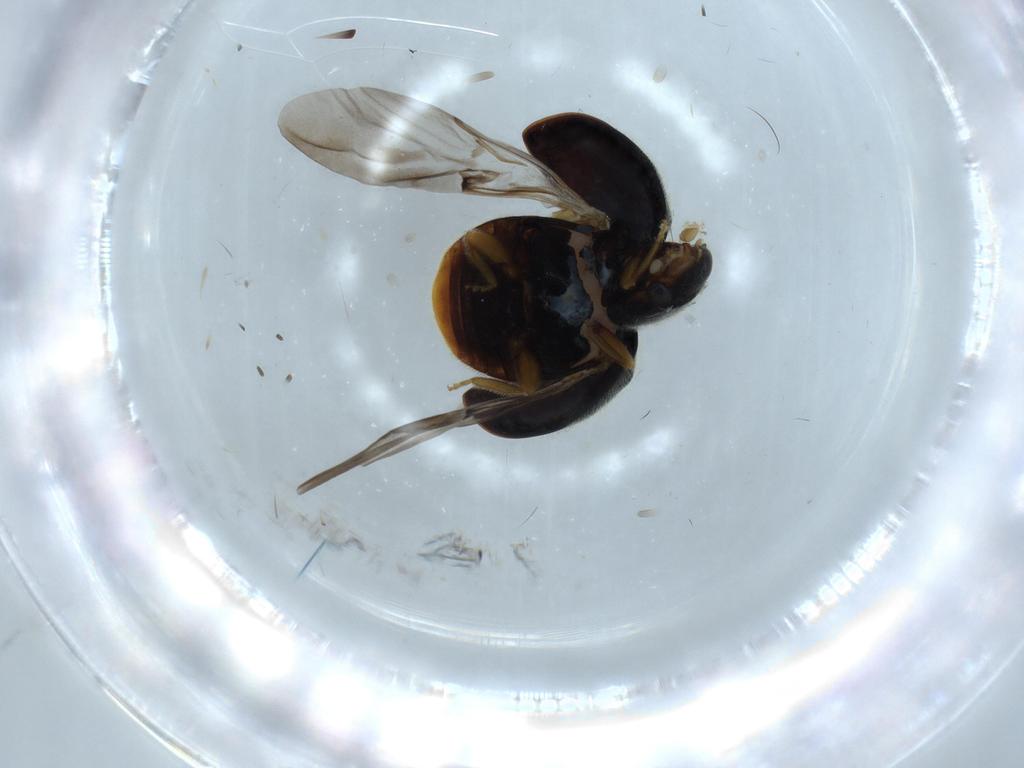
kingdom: Animalia
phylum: Arthropoda
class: Insecta
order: Coleoptera
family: Coccinellidae
